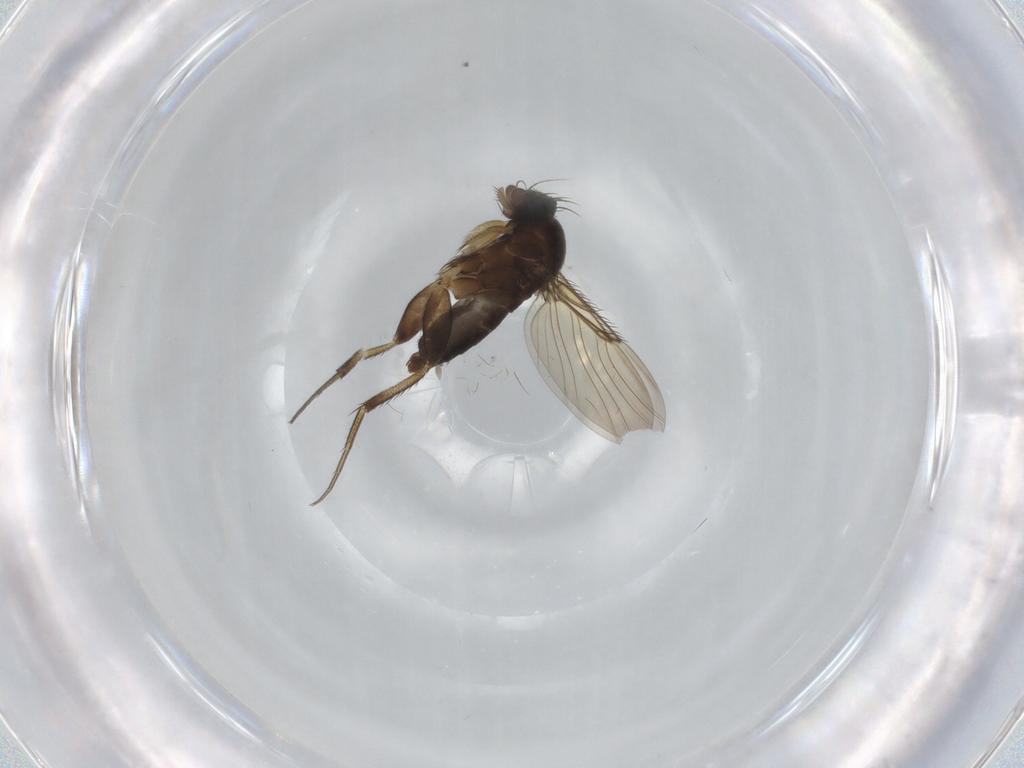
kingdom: Animalia
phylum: Arthropoda
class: Insecta
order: Diptera
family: Phoridae
